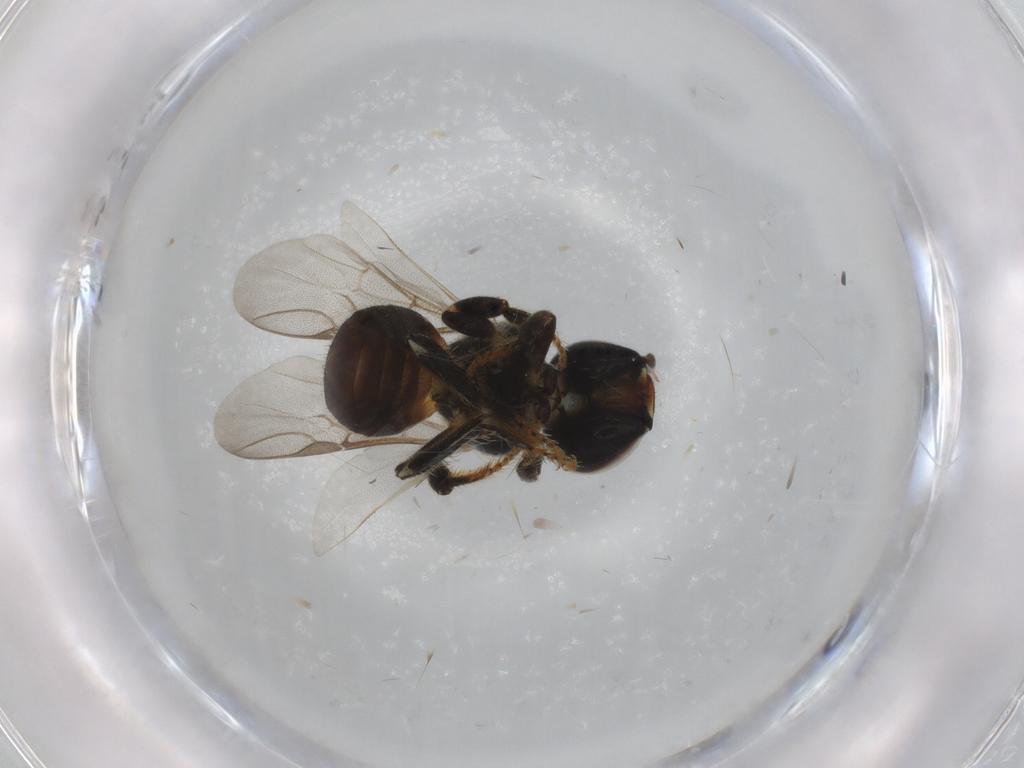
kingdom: Animalia
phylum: Arthropoda
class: Insecta
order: Hymenoptera
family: Apidae
